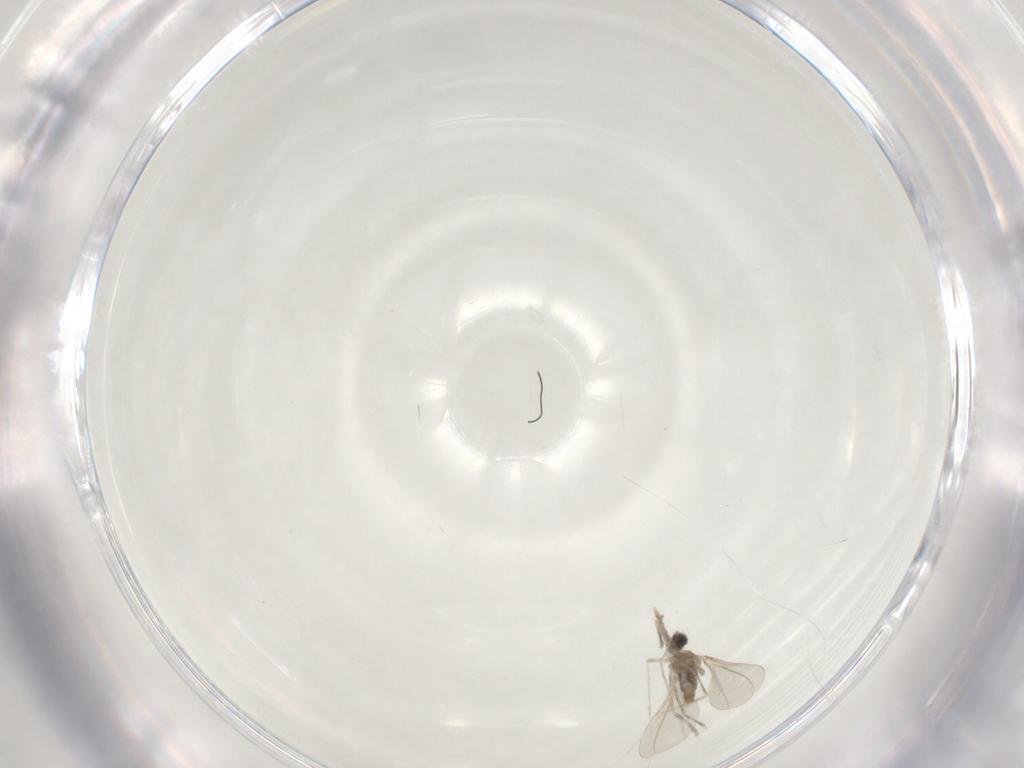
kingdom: Animalia
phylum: Arthropoda
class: Insecta
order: Diptera
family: Cecidomyiidae
